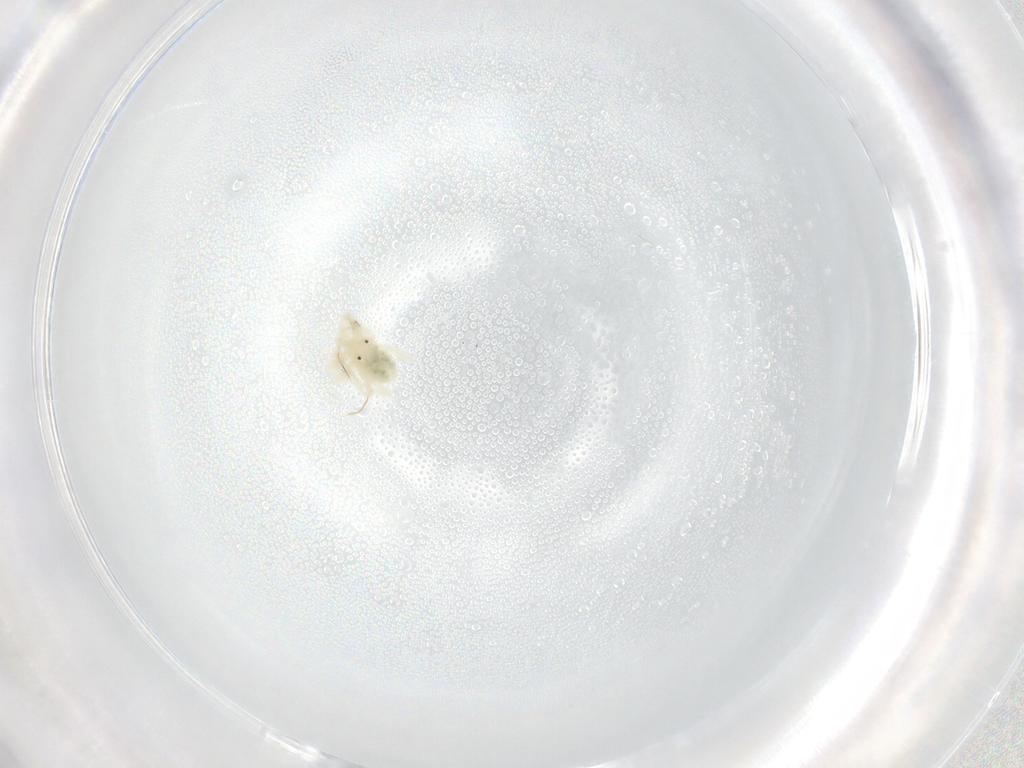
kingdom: Animalia
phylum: Arthropoda
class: Arachnida
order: Trombidiformes
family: Anystidae
